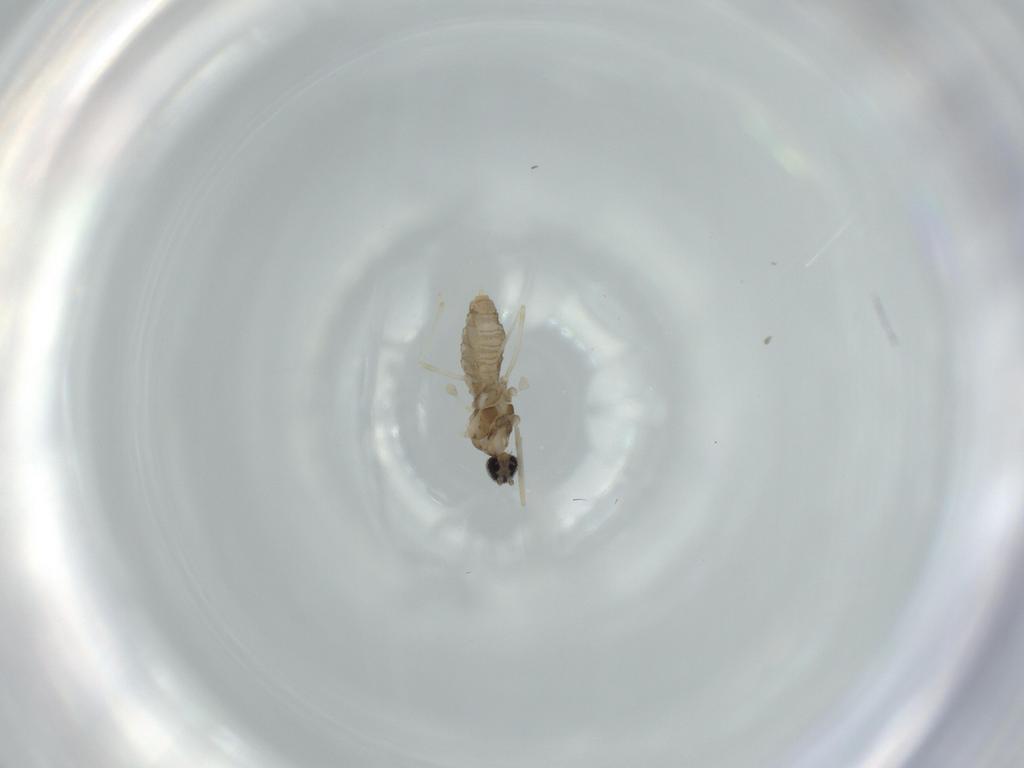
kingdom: Animalia
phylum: Arthropoda
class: Insecta
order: Diptera
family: Cecidomyiidae
